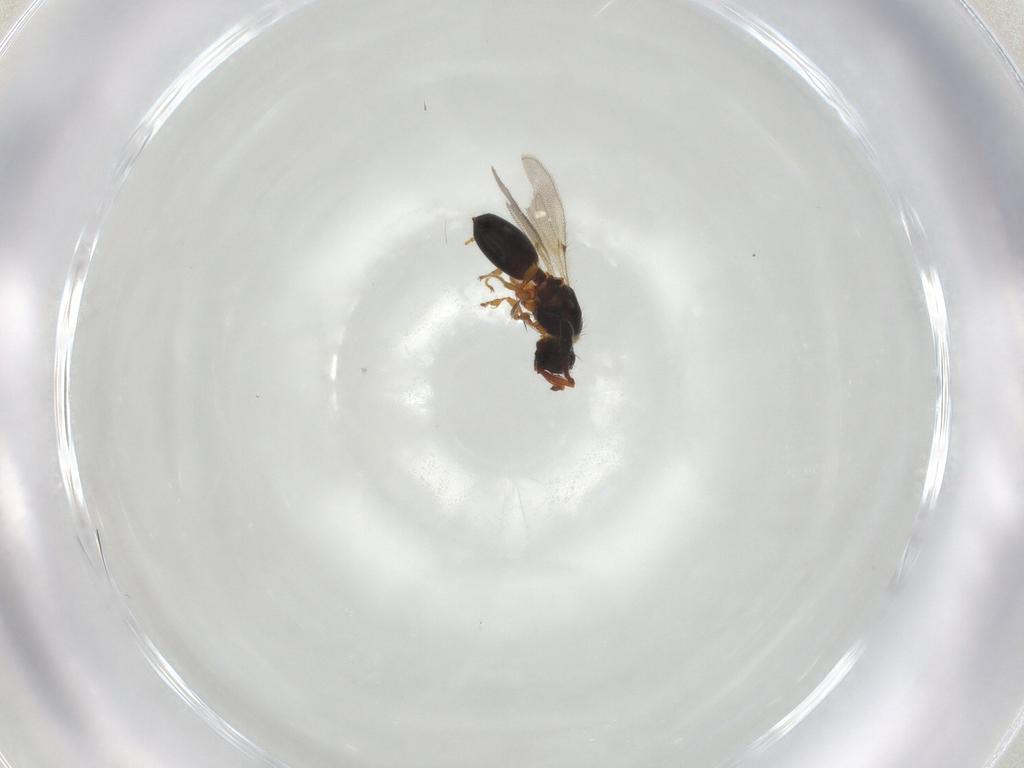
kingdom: Animalia
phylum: Arthropoda
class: Insecta
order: Hymenoptera
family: Diapriidae
